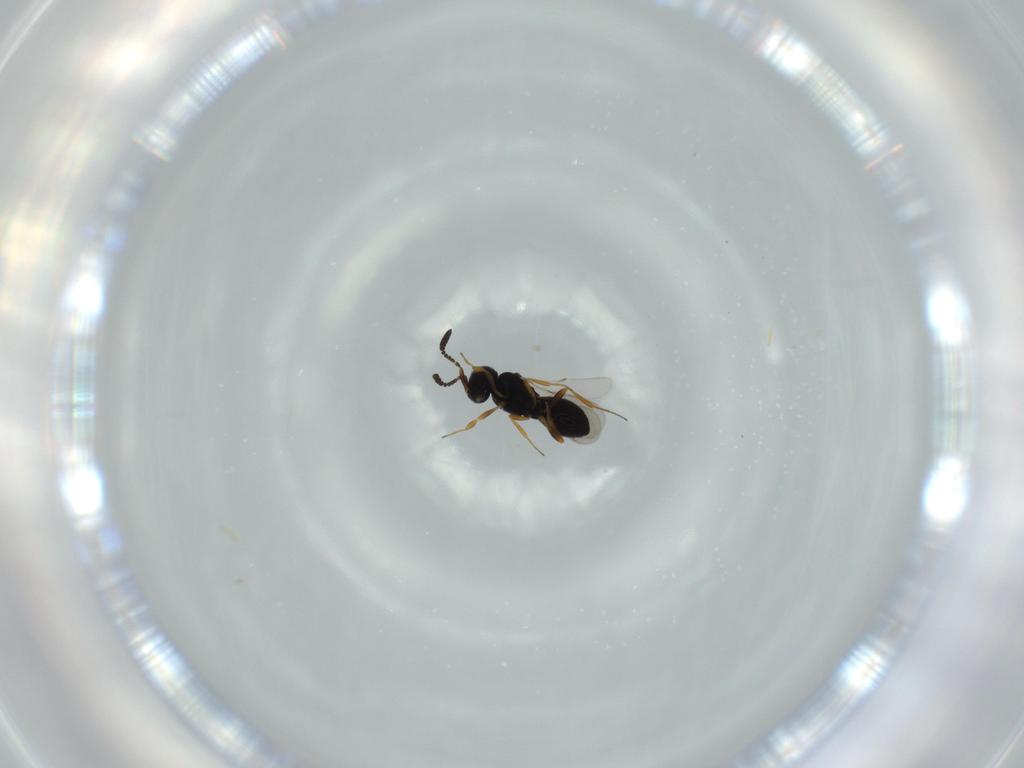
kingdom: Animalia
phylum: Arthropoda
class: Insecta
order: Hymenoptera
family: Scelionidae
